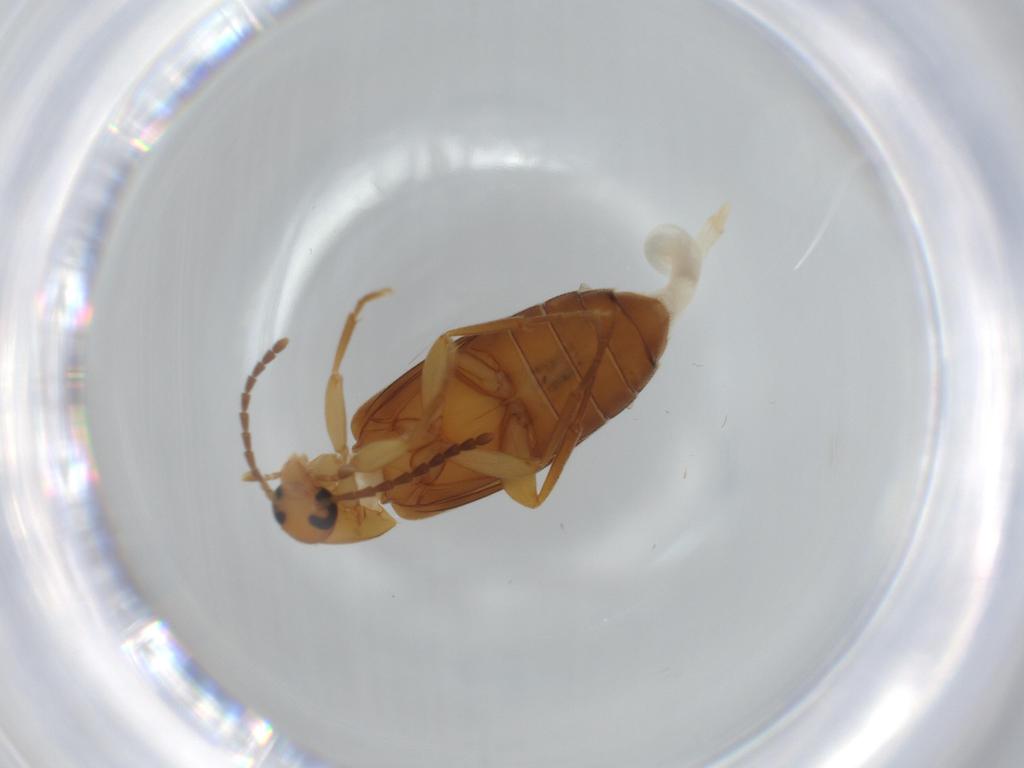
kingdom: Animalia
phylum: Arthropoda
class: Insecta
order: Coleoptera
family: Scraptiidae
